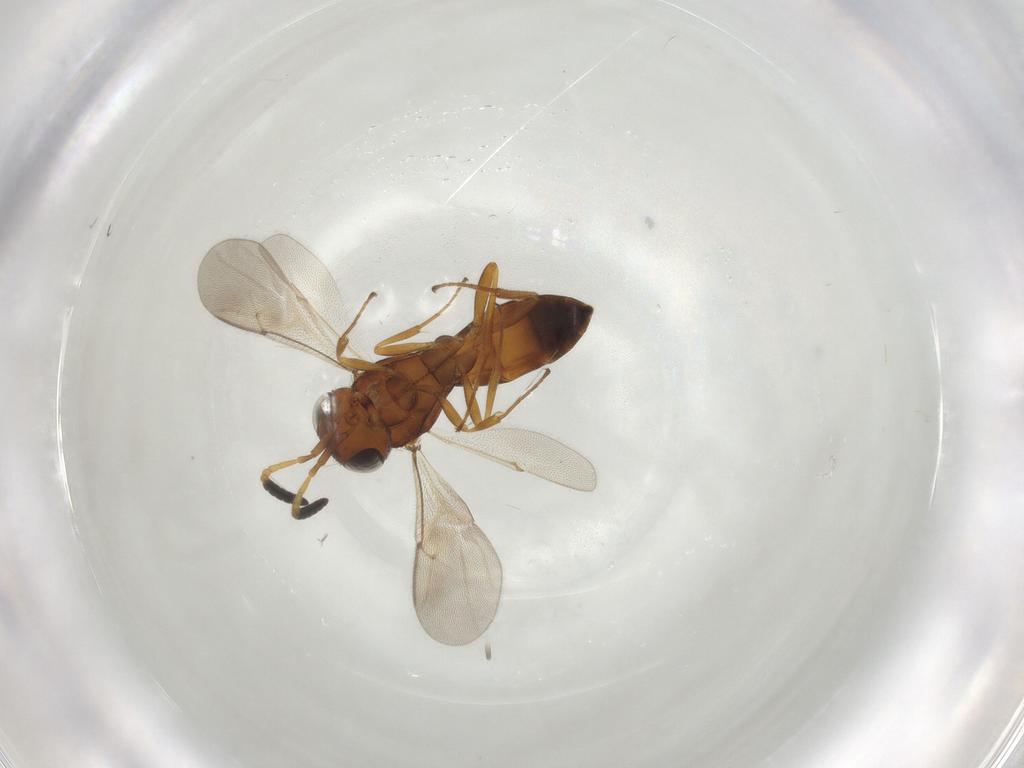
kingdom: Animalia
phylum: Arthropoda
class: Insecta
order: Hymenoptera
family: Scelionidae
